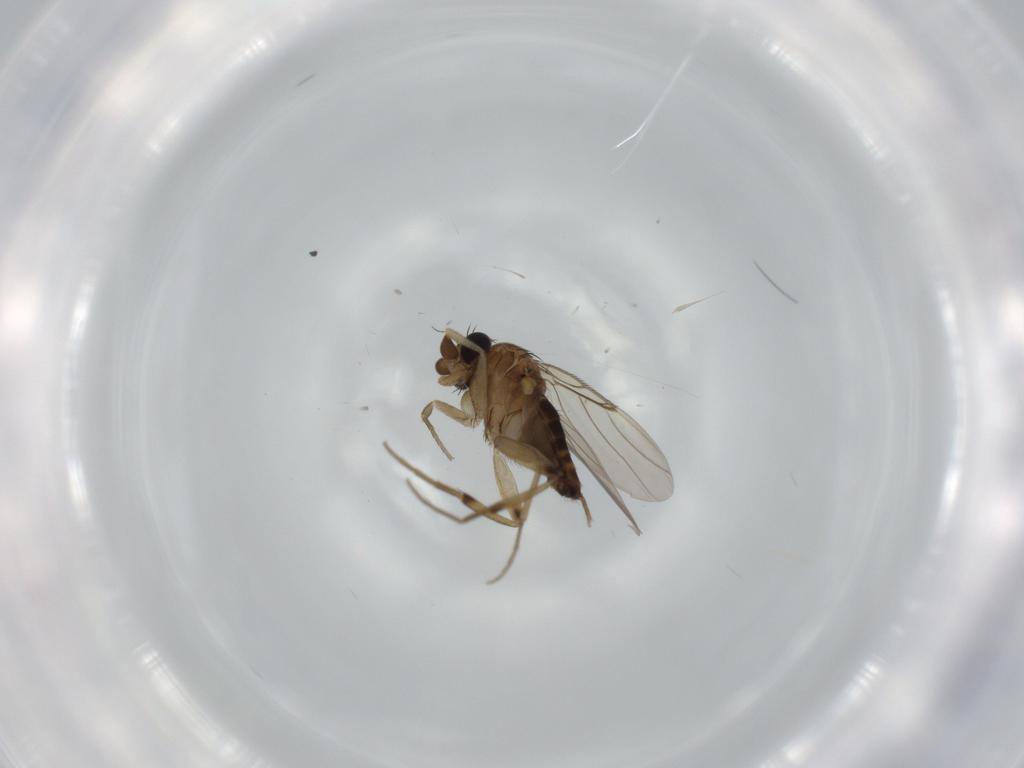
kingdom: Animalia
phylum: Arthropoda
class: Insecta
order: Diptera
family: Phoridae
